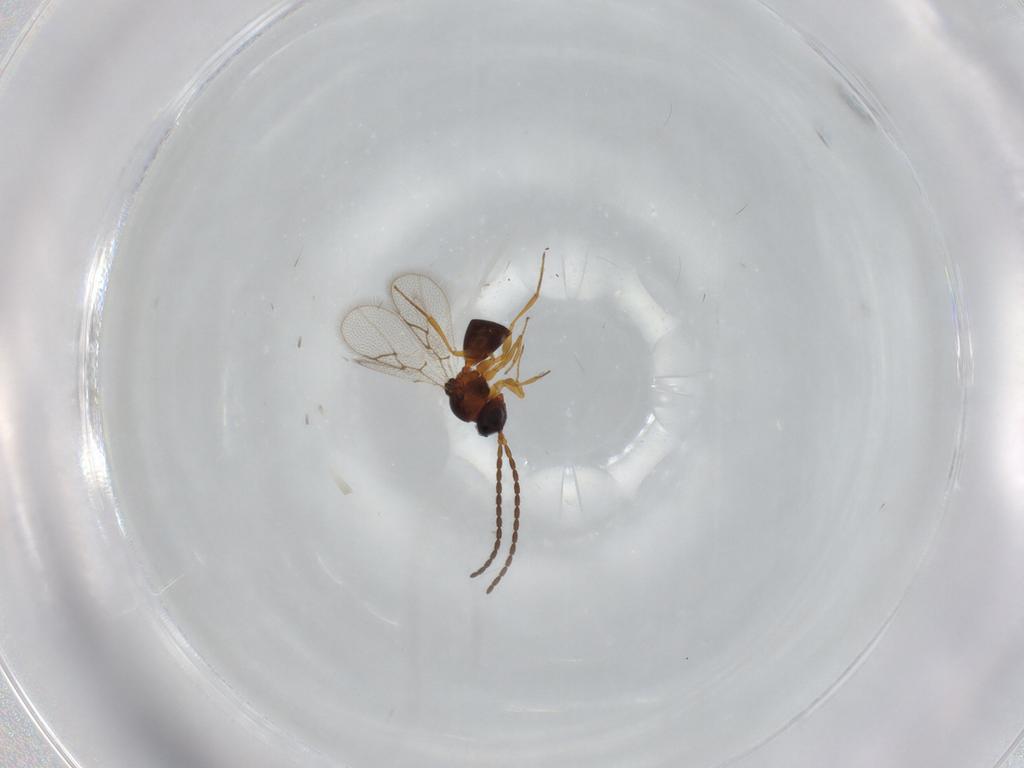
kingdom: Animalia
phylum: Arthropoda
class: Insecta
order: Hymenoptera
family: Figitidae
